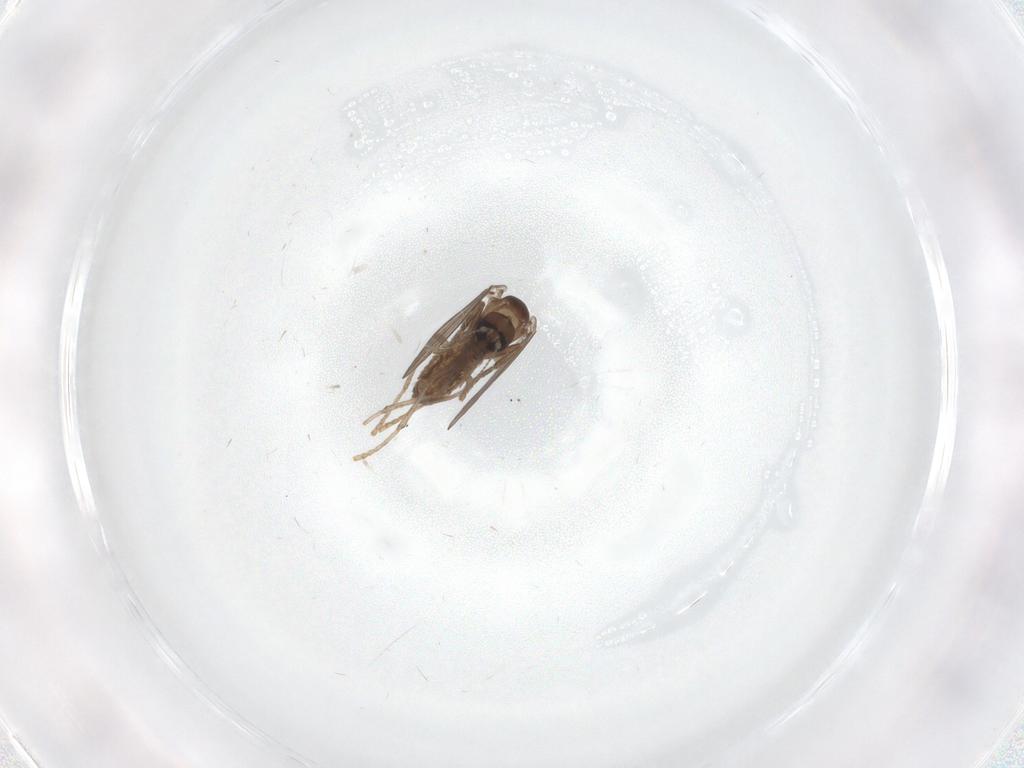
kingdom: Animalia
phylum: Arthropoda
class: Insecta
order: Diptera
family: Psychodidae
